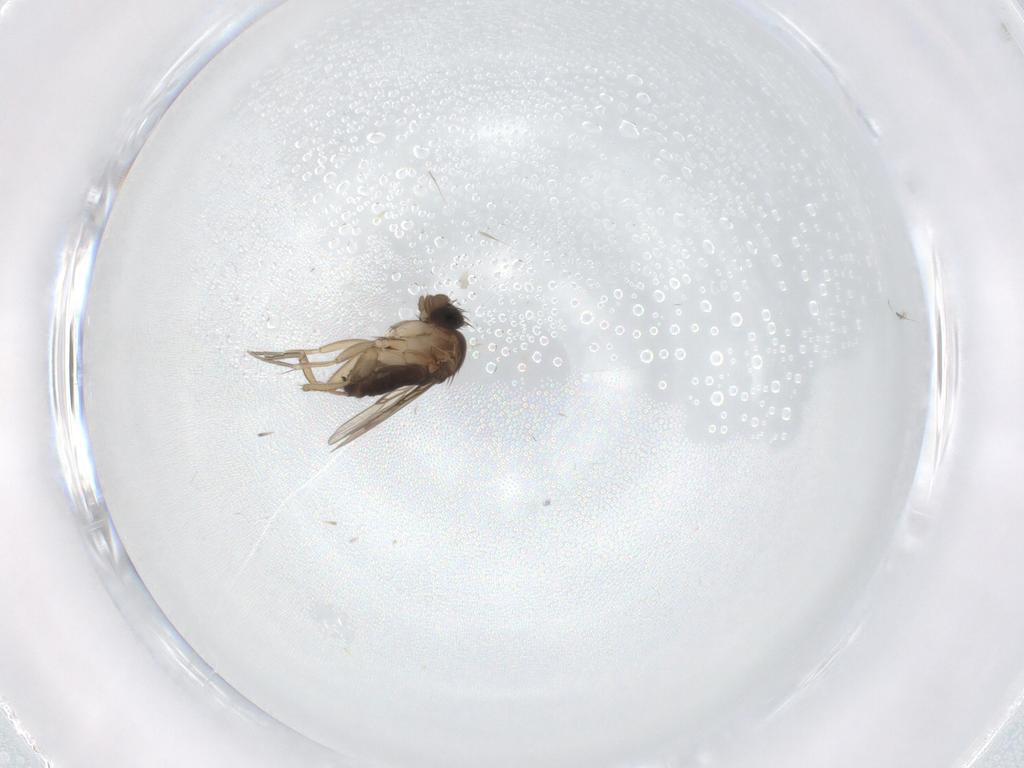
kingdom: Animalia
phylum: Arthropoda
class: Insecta
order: Diptera
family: Phoridae
